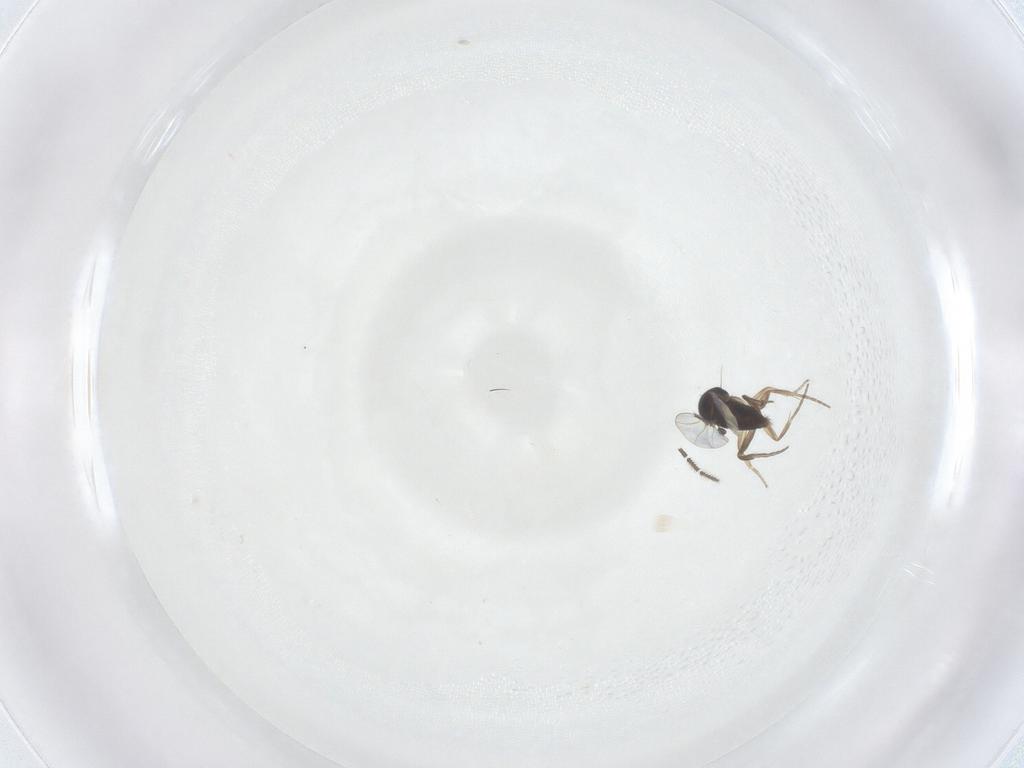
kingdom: Animalia
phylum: Arthropoda
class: Insecta
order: Diptera
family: Phoridae
